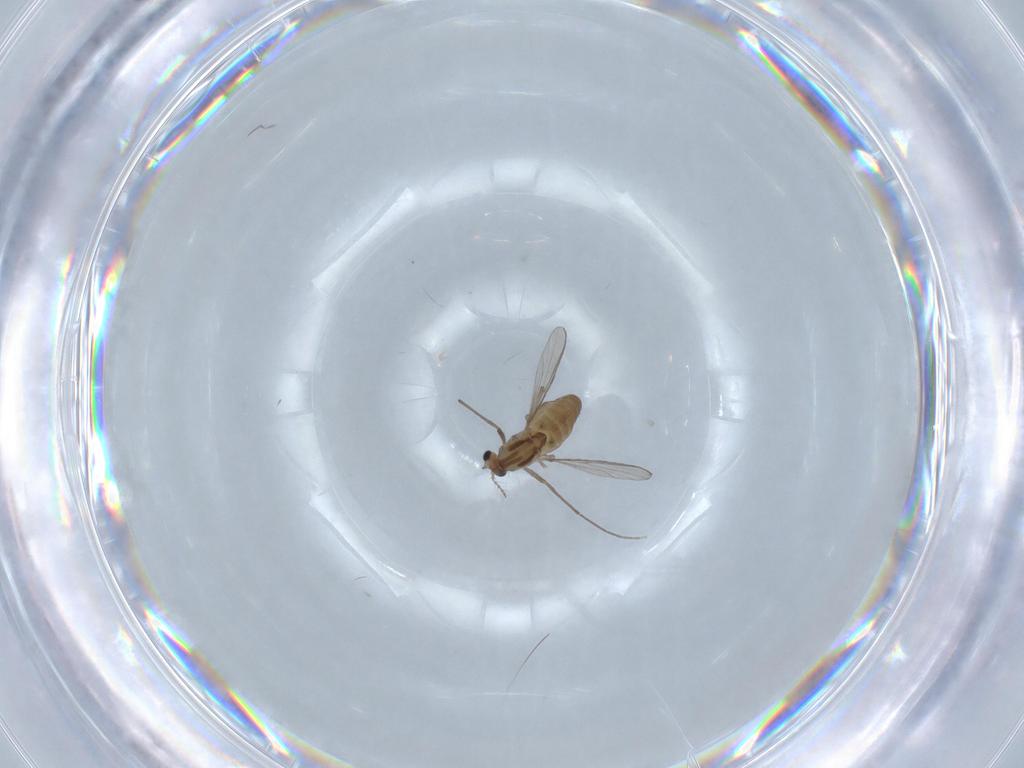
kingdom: Animalia
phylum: Arthropoda
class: Insecta
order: Diptera
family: Chironomidae
